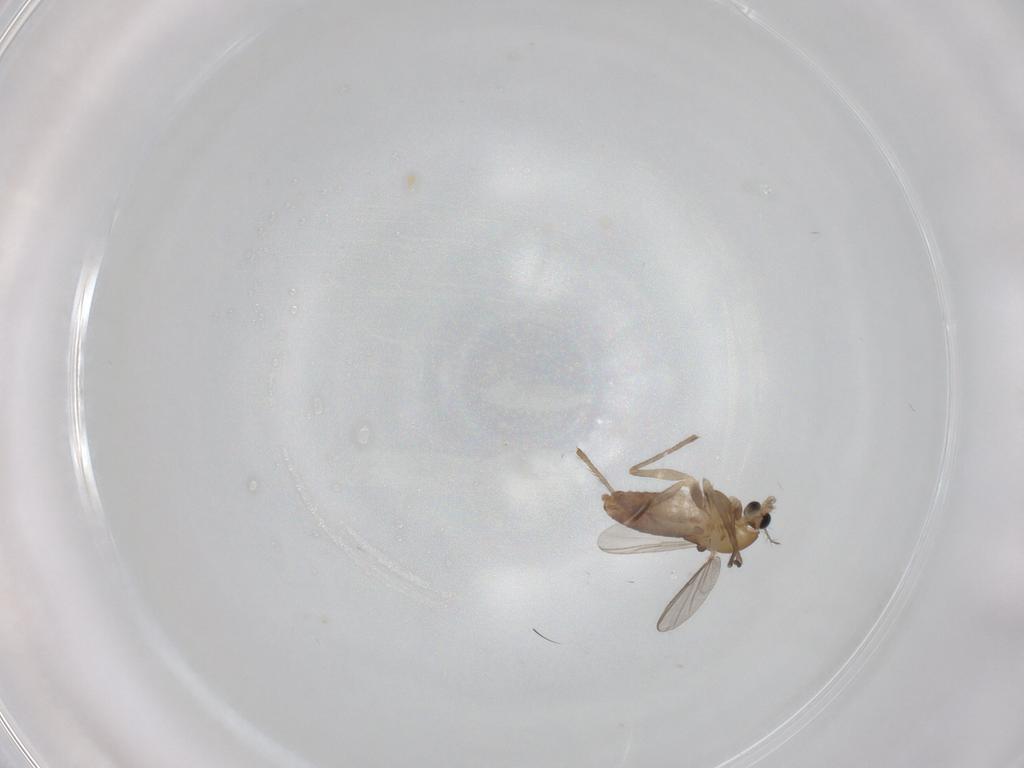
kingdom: Animalia
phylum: Arthropoda
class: Insecta
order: Diptera
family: Chironomidae
